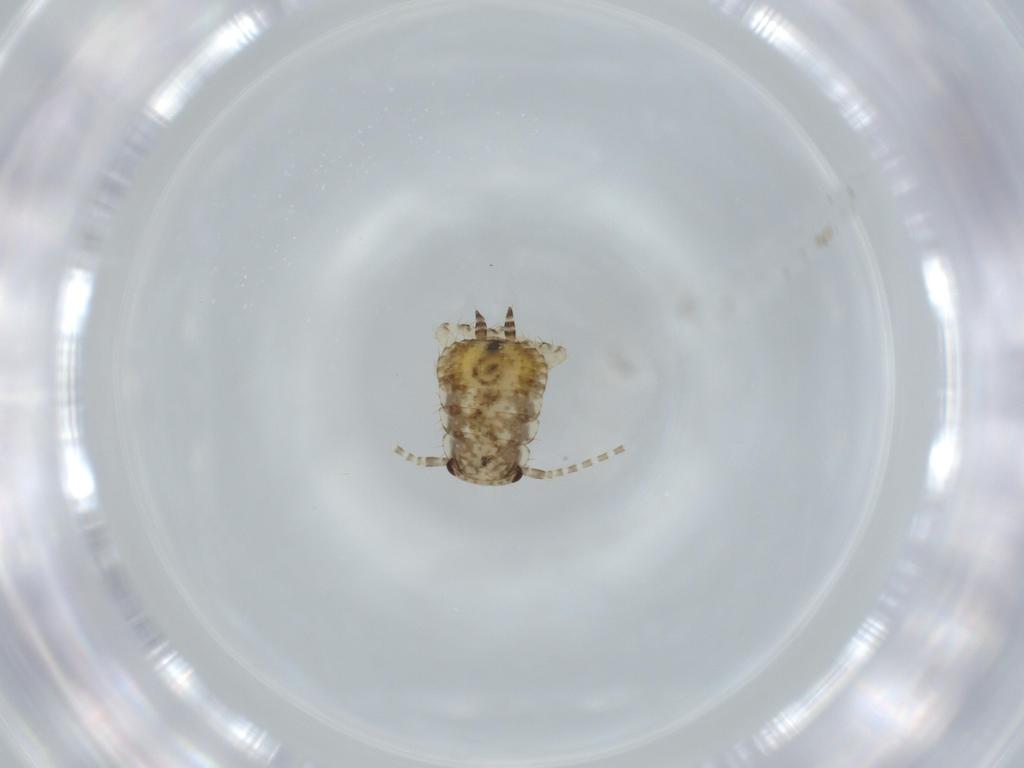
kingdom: Animalia
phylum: Arthropoda
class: Insecta
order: Blattodea
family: Ectobiidae
